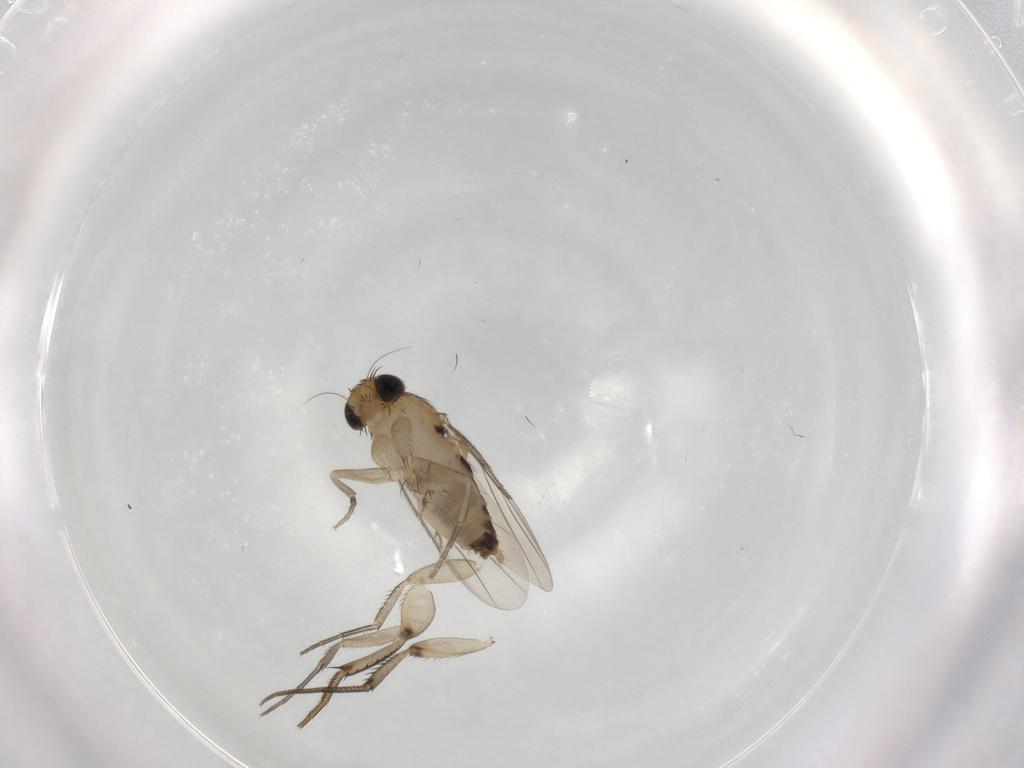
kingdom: Animalia
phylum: Arthropoda
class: Insecta
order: Diptera
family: Phoridae
